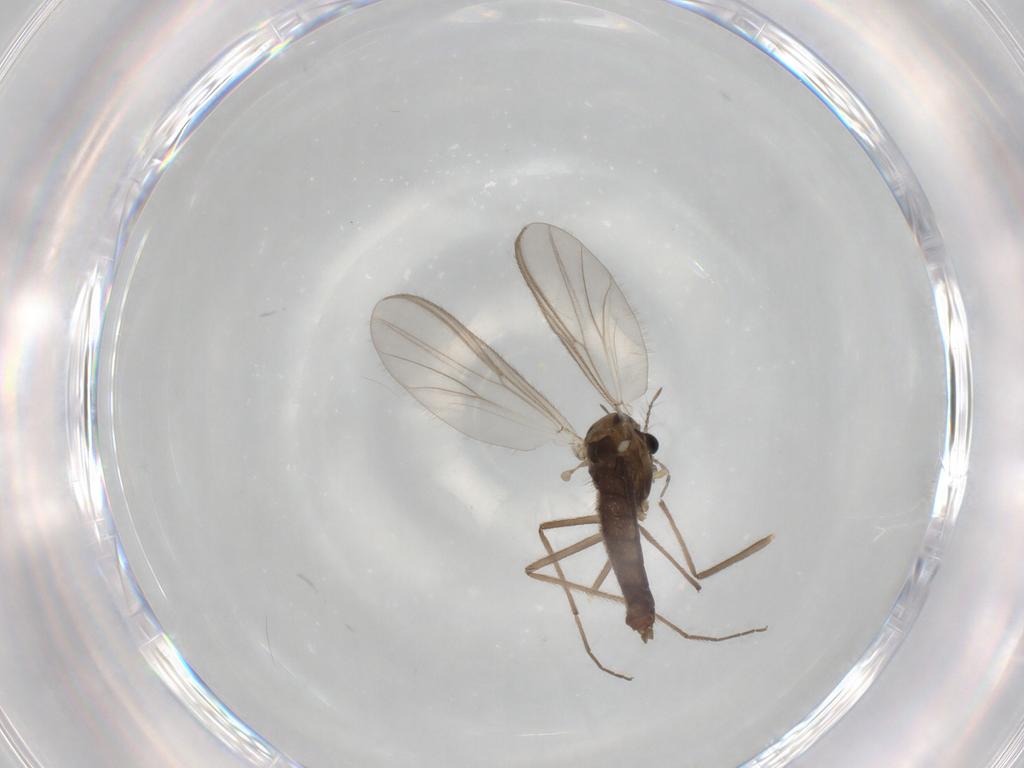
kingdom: Animalia
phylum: Arthropoda
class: Insecta
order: Diptera
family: Chironomidae
